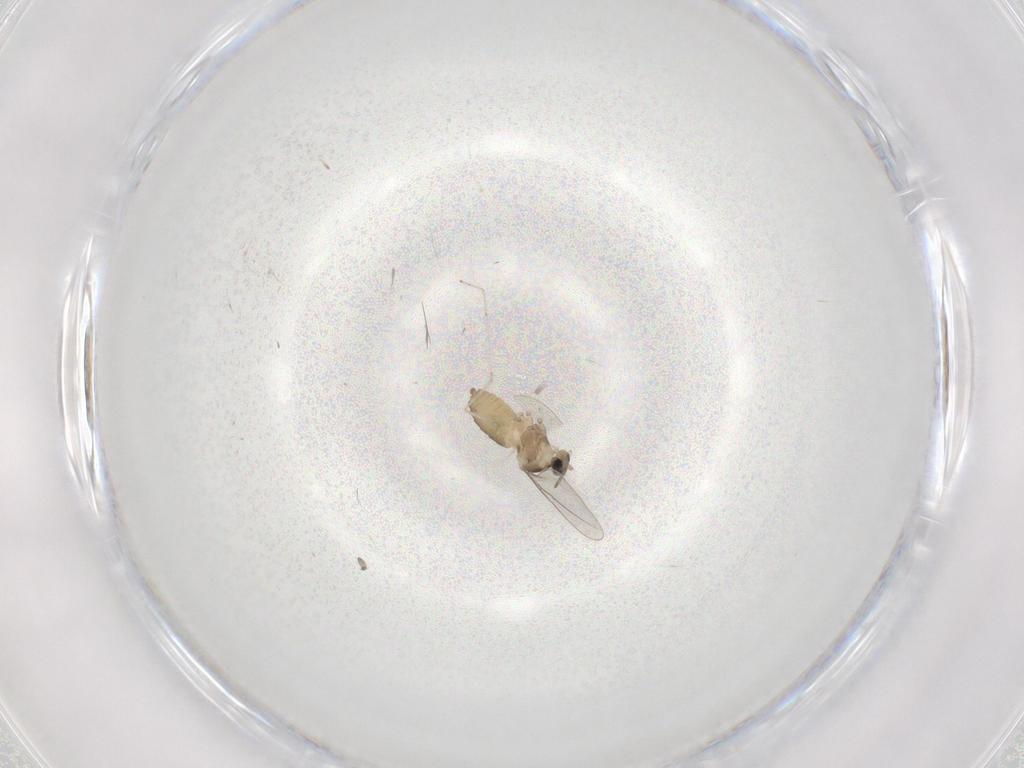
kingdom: Animalia
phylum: Arthropoda
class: Insecta
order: Diptera
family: Cecidomyiidae
